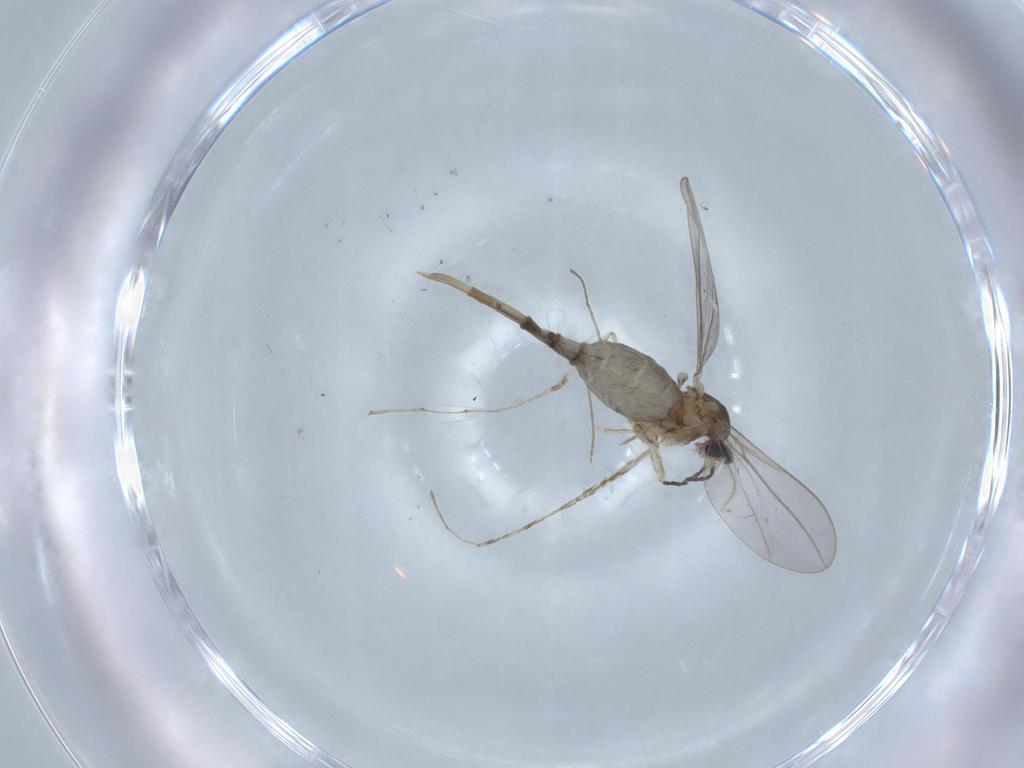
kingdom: Animalia
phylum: Arthropoda
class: Insecta
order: Diptera
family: Cecidomyiidae
